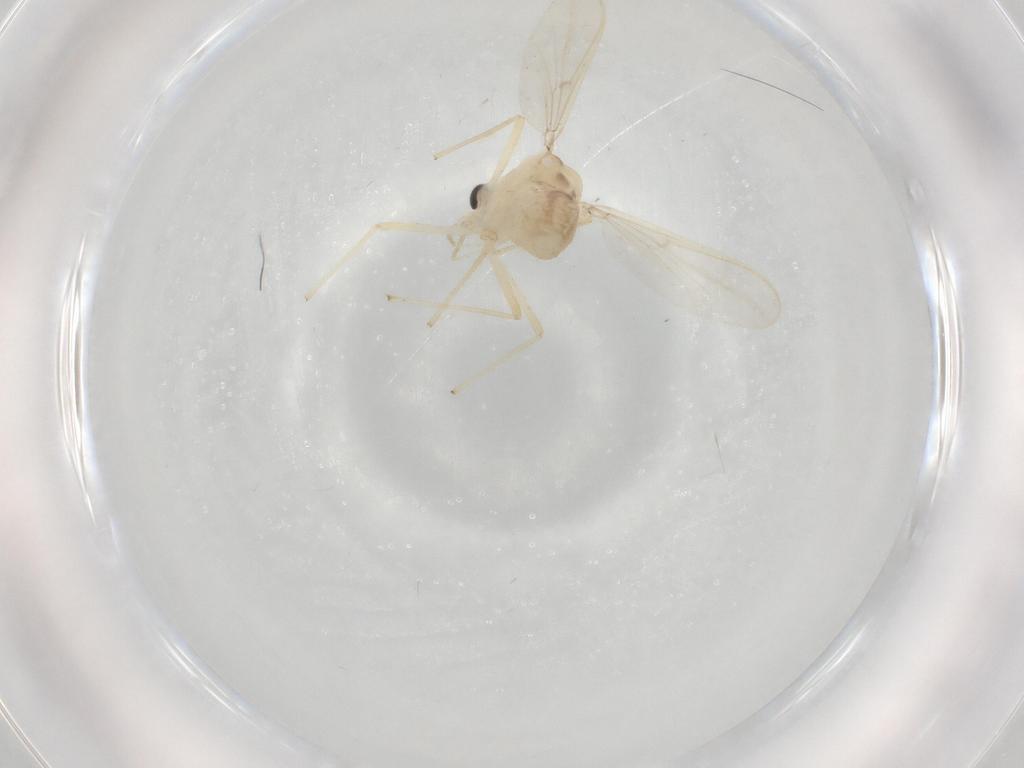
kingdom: Animalia
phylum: Arthropoda
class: Insecta
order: Diptera
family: Chironomidae
